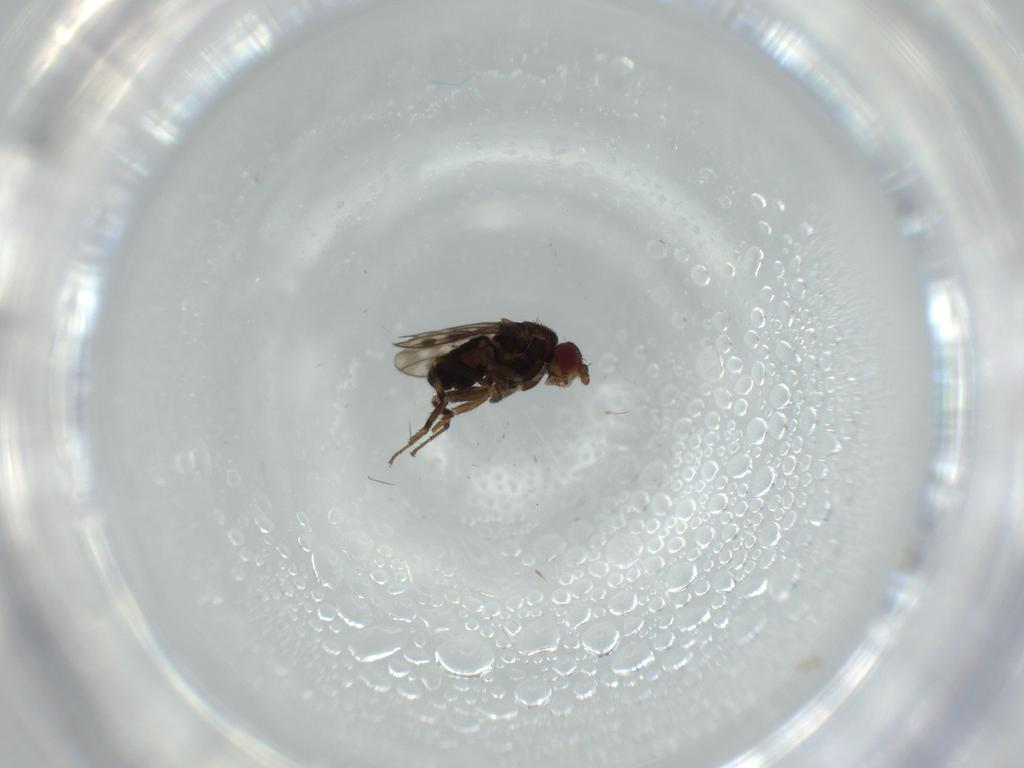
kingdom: Animalia
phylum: Arthropoda
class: Insecta
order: Diptera
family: Sphaeroceridae
